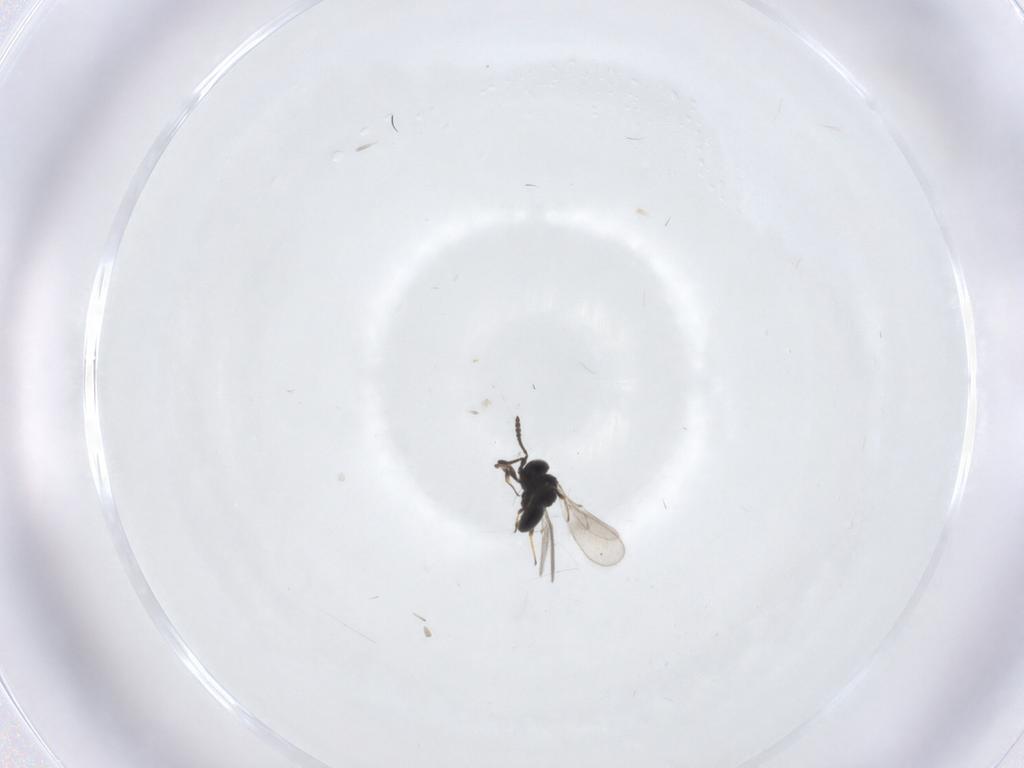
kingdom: Animalia
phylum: Arthropoda
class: Insecta
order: Hymenoptera
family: Scelionidae
